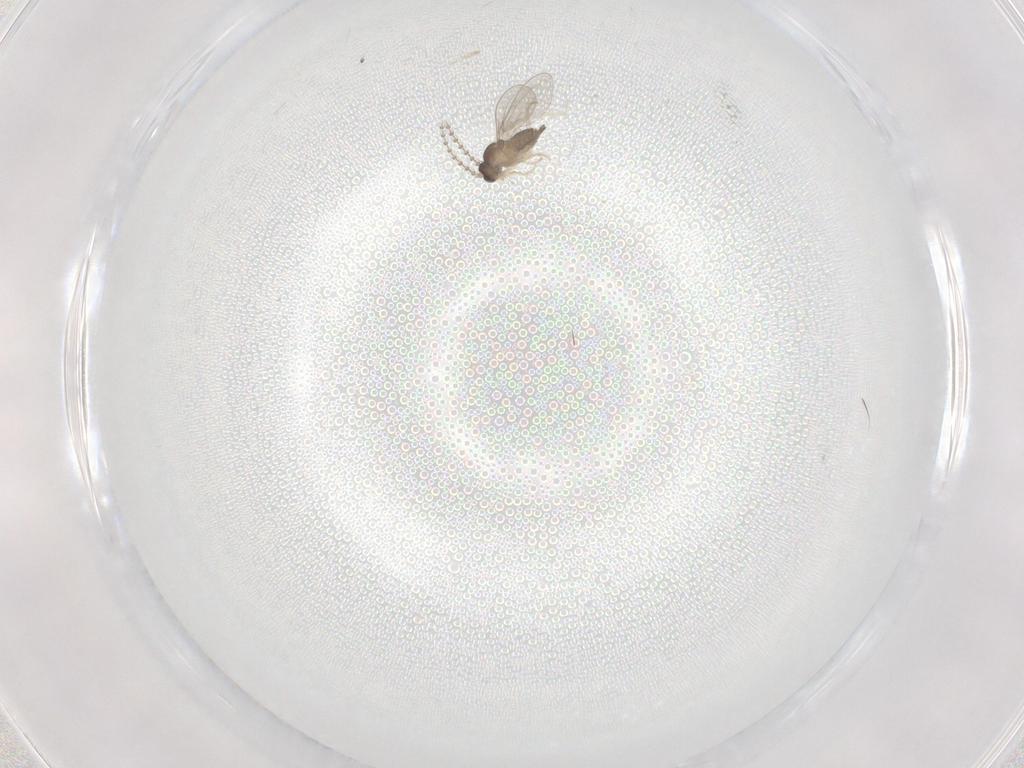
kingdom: Animalia
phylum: Arthropoda
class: Insecta
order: Diptera
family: Cecidomyiidae
